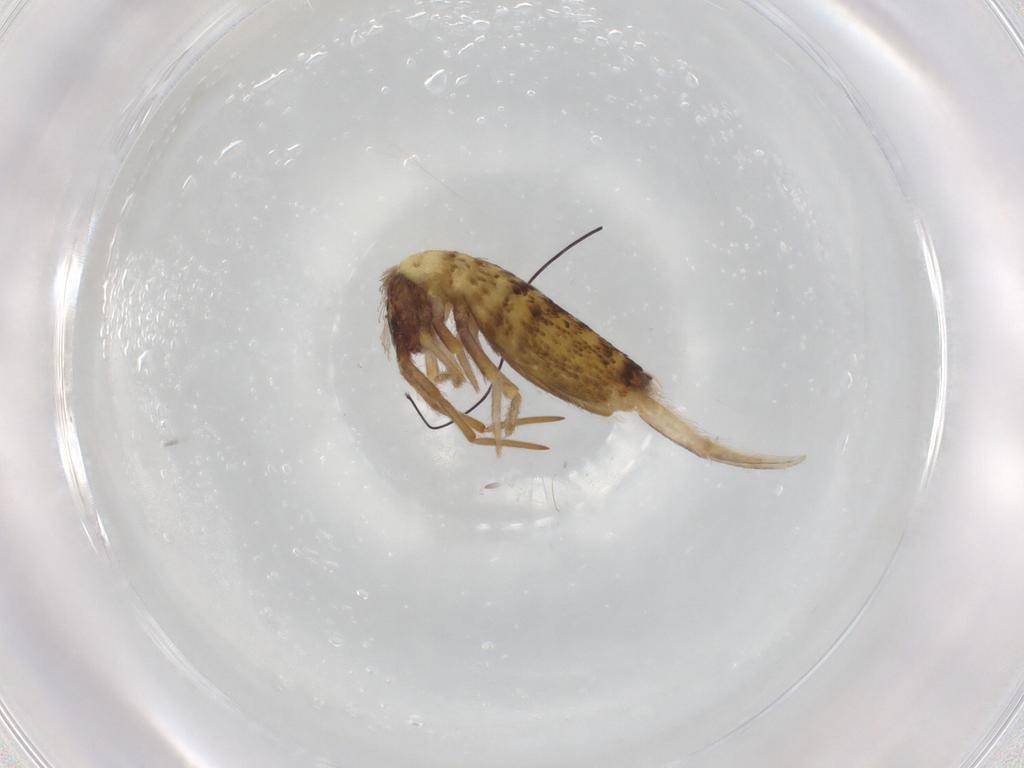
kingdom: Animalia
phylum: Arthropoda
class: Collembola
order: Entomobryomorpha
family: Entomobryidae
